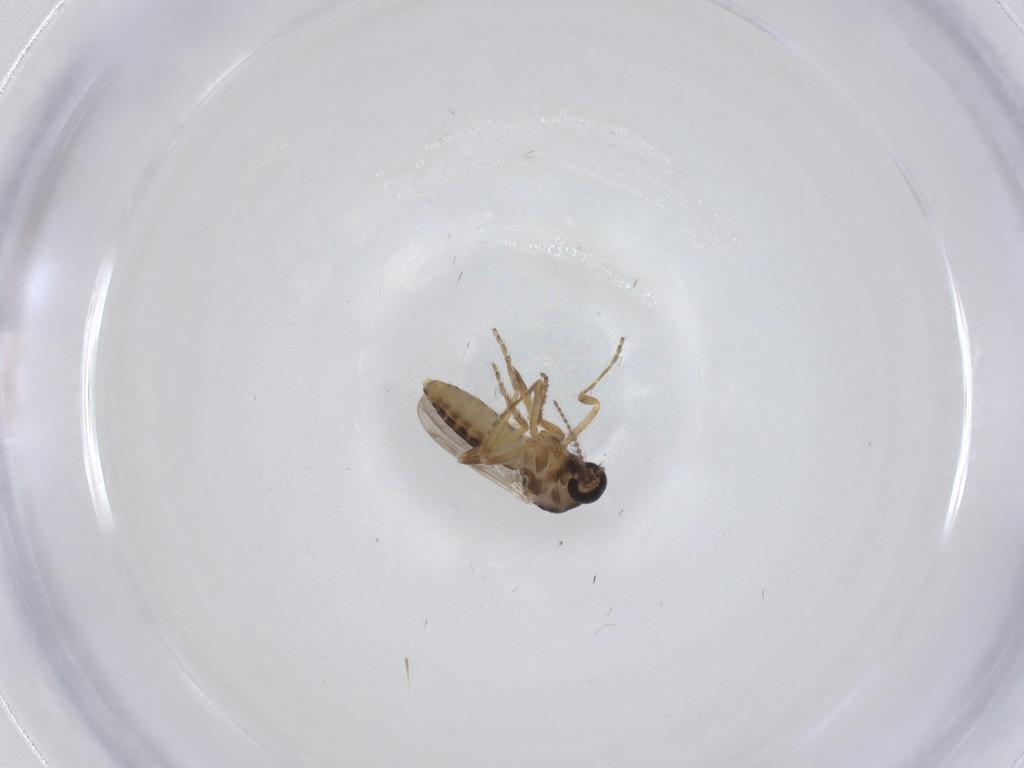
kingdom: Animalia
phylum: Arthropoda
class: Insecta
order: Diptera
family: Ceratopogonidae
